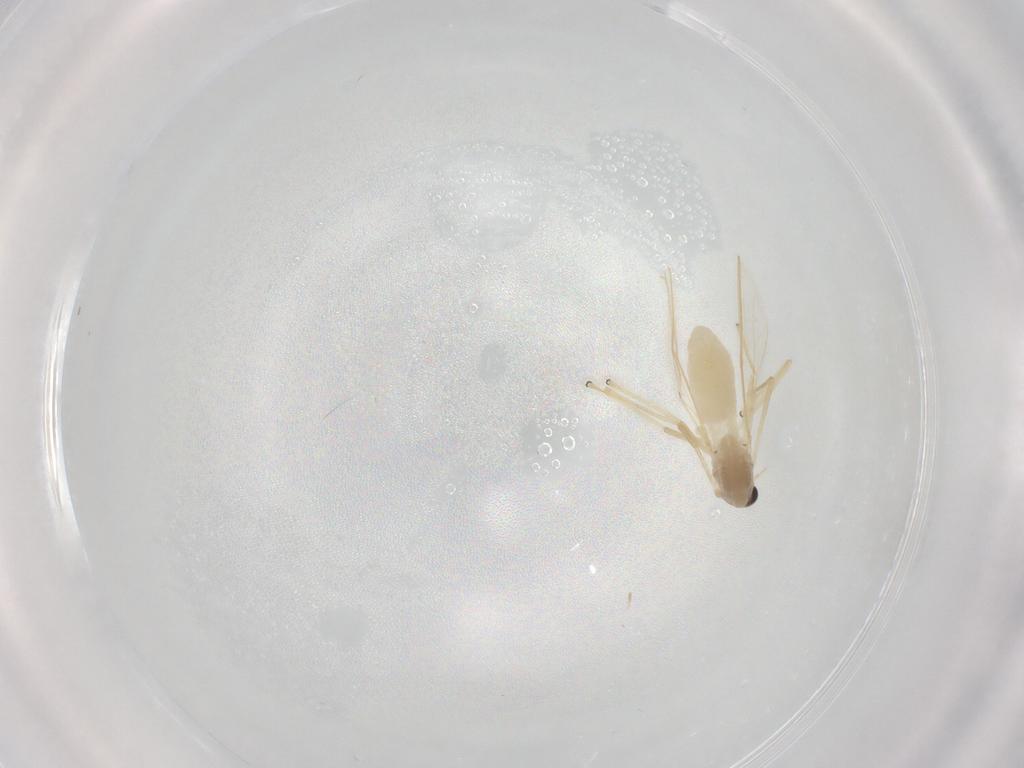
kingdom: Animalia
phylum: Arthropoda
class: Insecta
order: Diptera
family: Chironomidae
